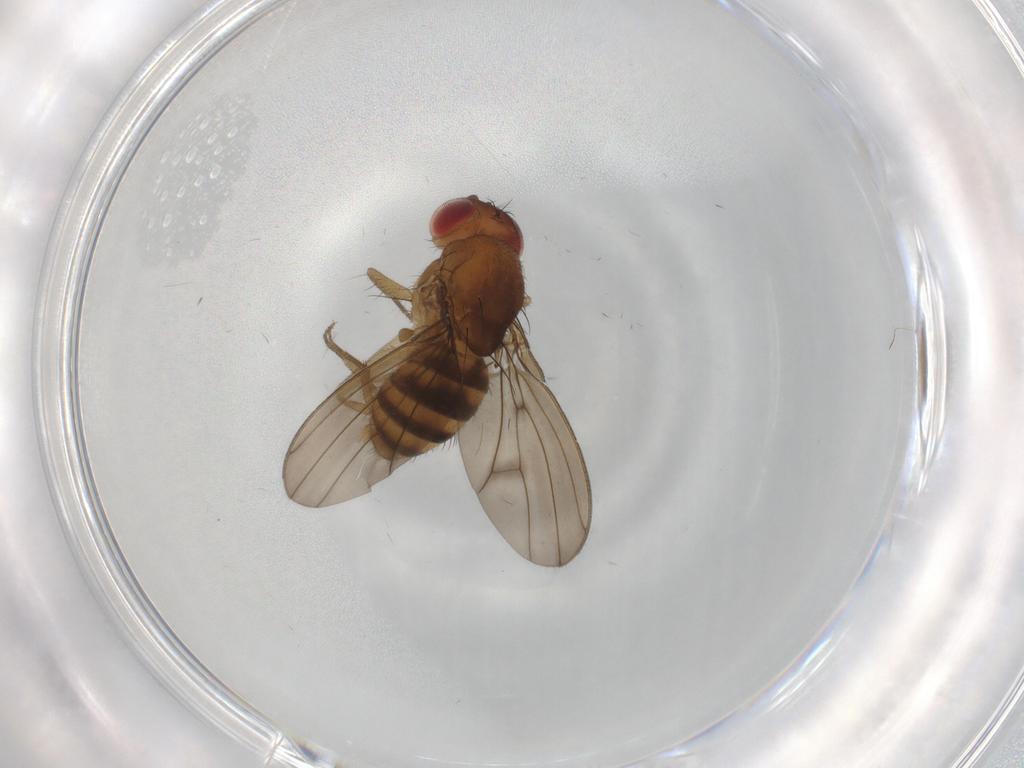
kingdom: Animalia
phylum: Arthropoda
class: Insecta
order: Diptera
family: Drosophilidae
